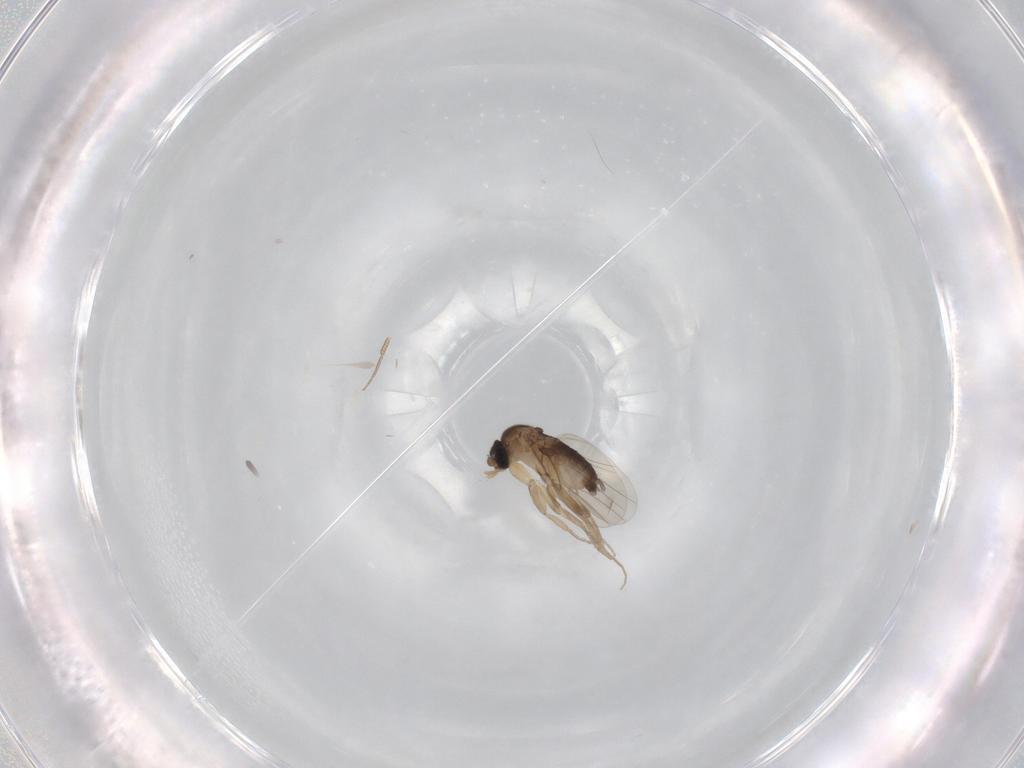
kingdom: Animalia
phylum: Arthropoda
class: Insecta
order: Diptera
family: Phoridae
